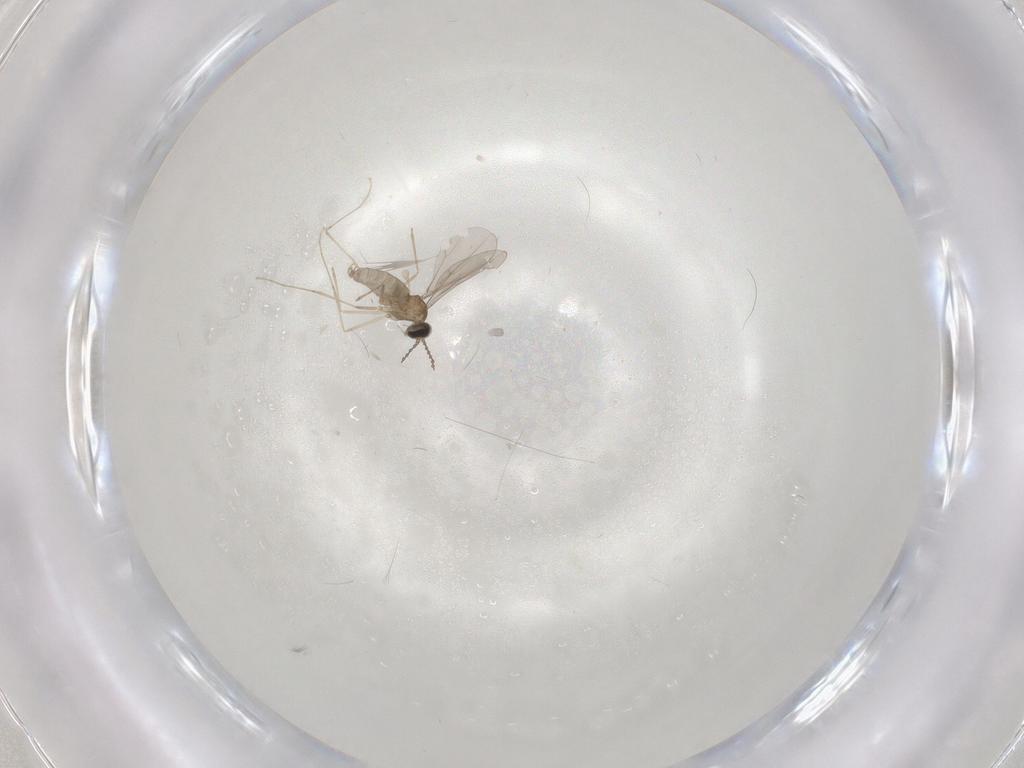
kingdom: Animalia
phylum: Arthropoda
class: Insecta
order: Diptera
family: Cecidomyiidae
